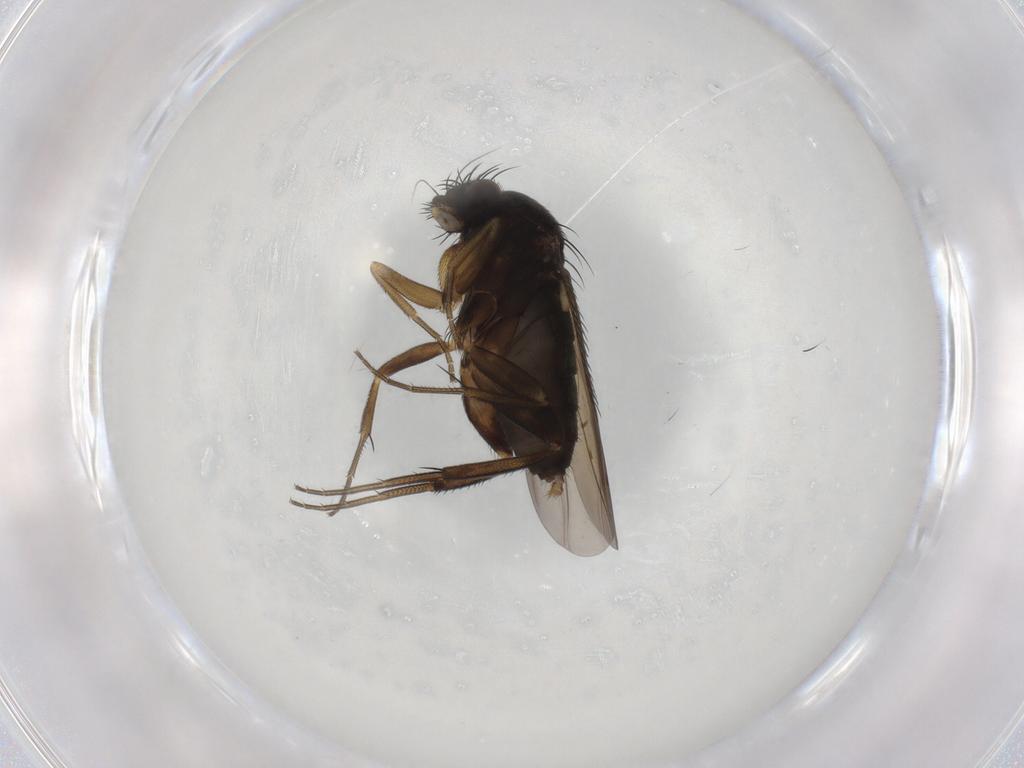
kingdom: Animalia
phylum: Arthropoda
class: Insecta
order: Diptera
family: Phoridae
